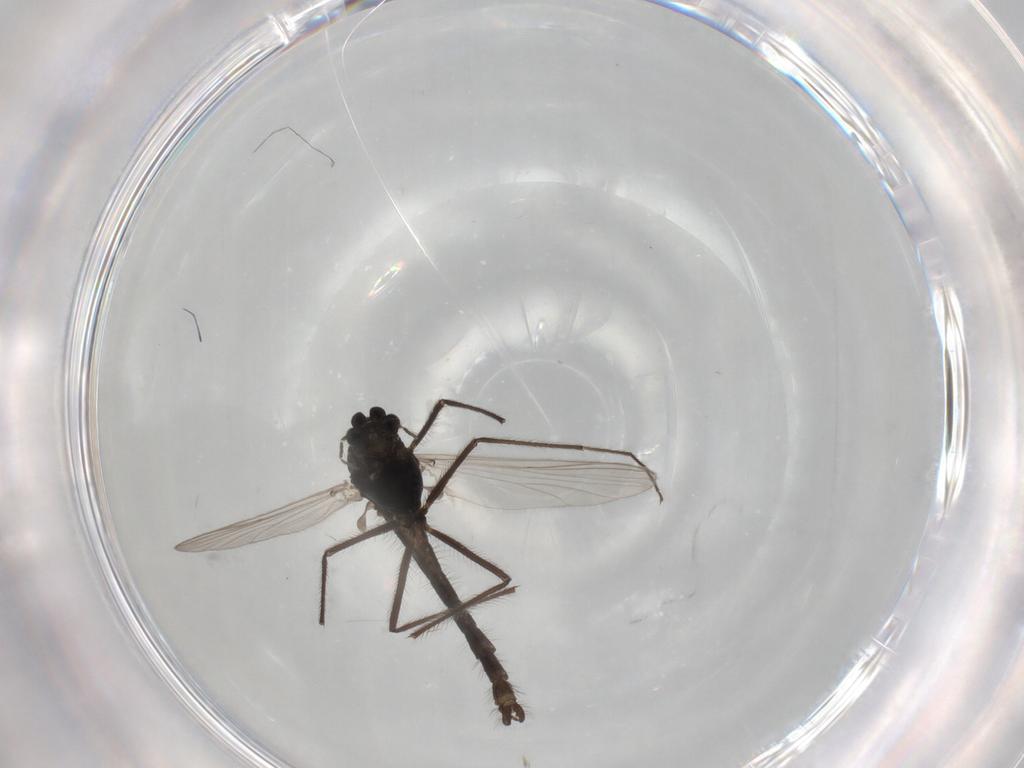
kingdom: Animalia
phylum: Arthropoda
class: Insecta
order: Diptera
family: Chironomidae
